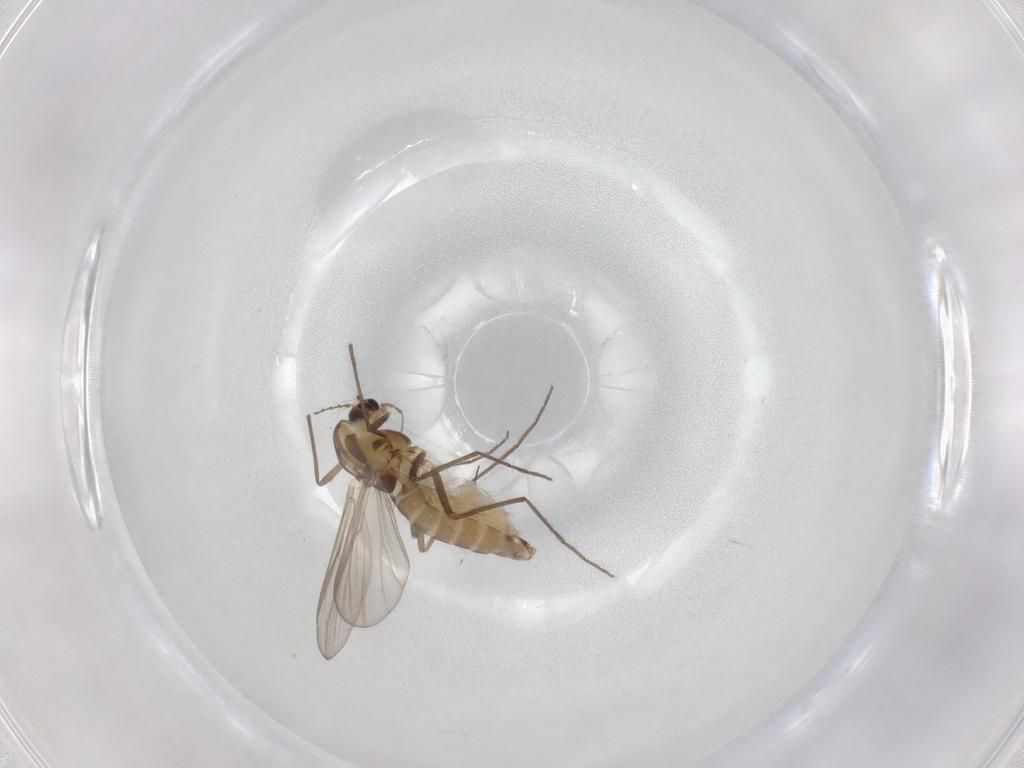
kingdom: Animalia
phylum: Arthropoda
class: Insecta
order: Diptera
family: Chironomidae
